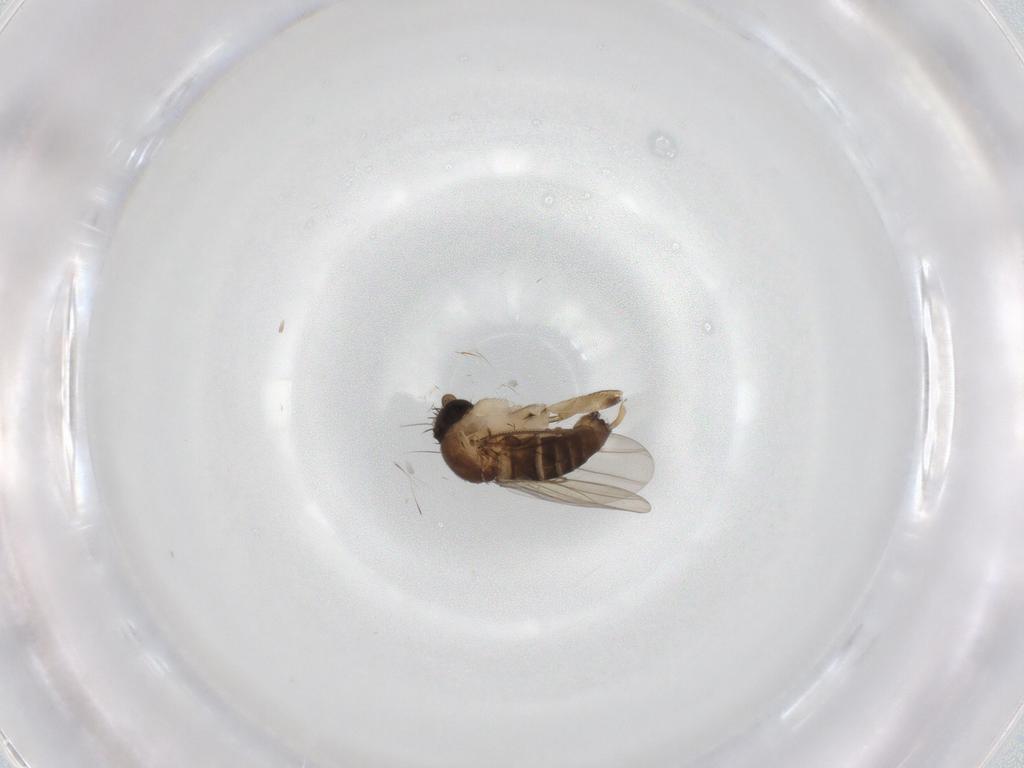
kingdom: Animalia
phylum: Arthropoda
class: Insecta
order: Diptera
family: Phoridae
